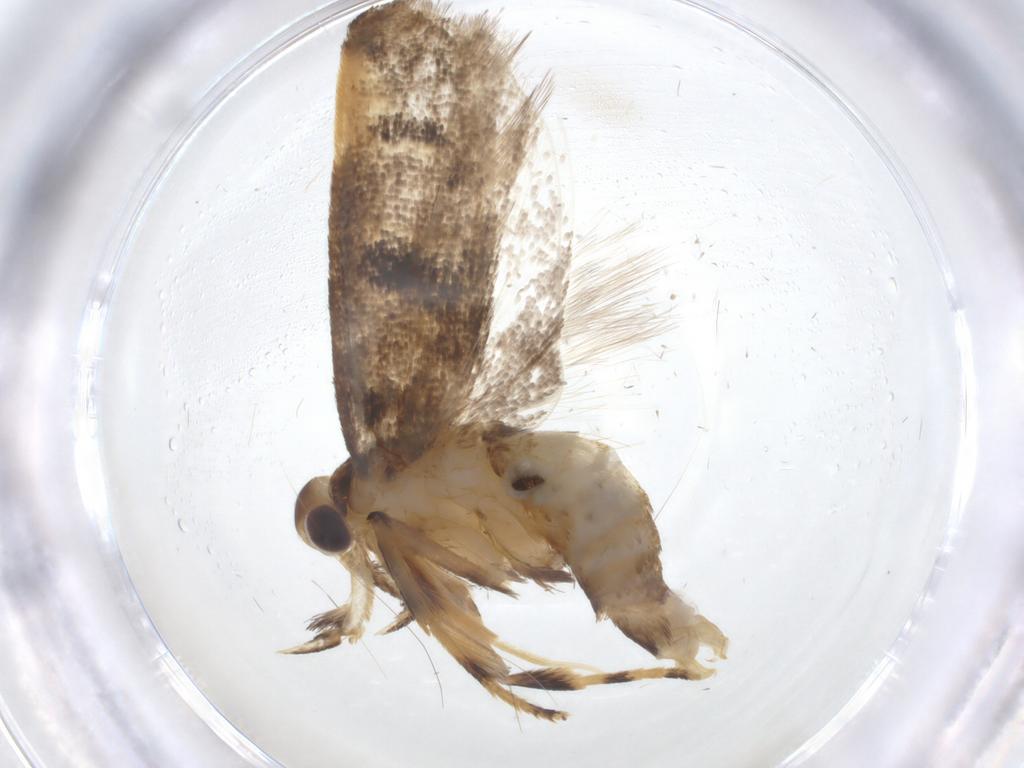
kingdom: Animalia
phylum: Arthropoda
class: Insecta
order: Lepidoptera
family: Lecithoceridae
